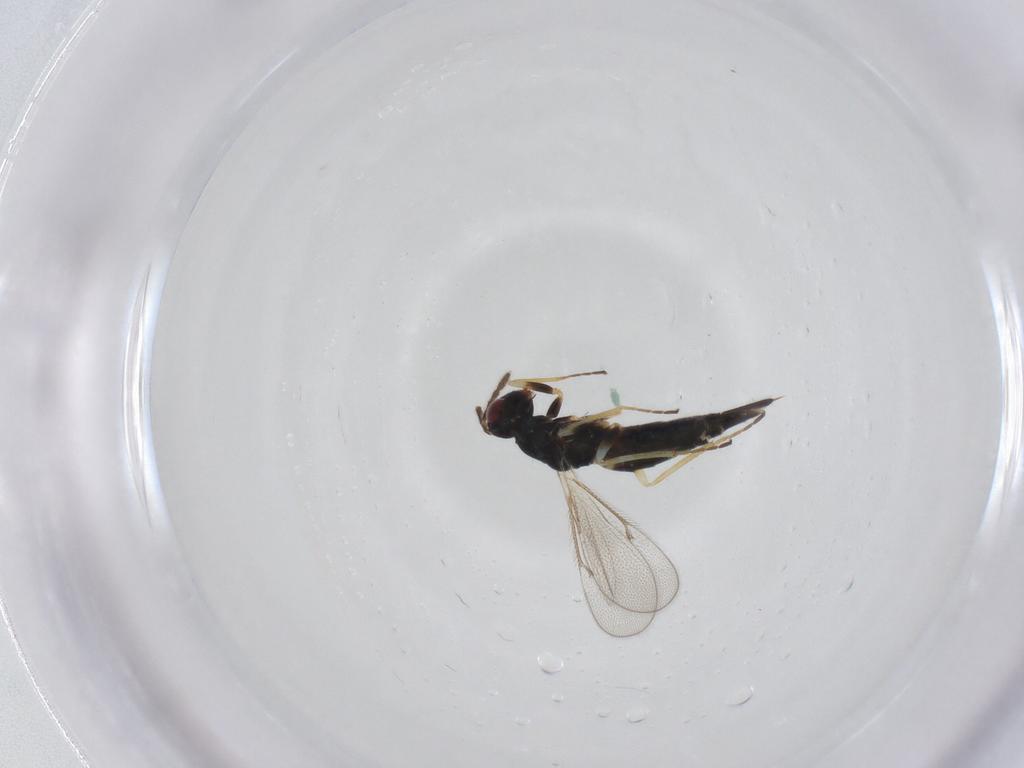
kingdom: Animalia
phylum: Arthropoda
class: Insecta
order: Hymenoptera
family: Eulophidae
